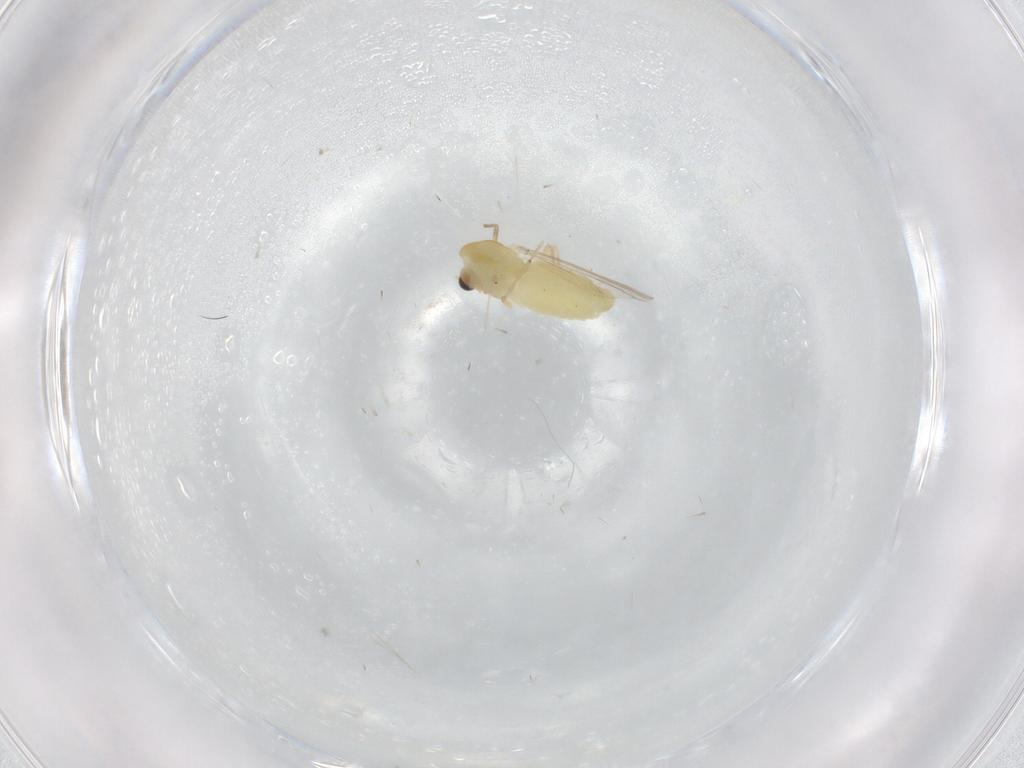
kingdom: Animalia
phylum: Arthropoda
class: Insecta
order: Diptera
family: Chironomidae
